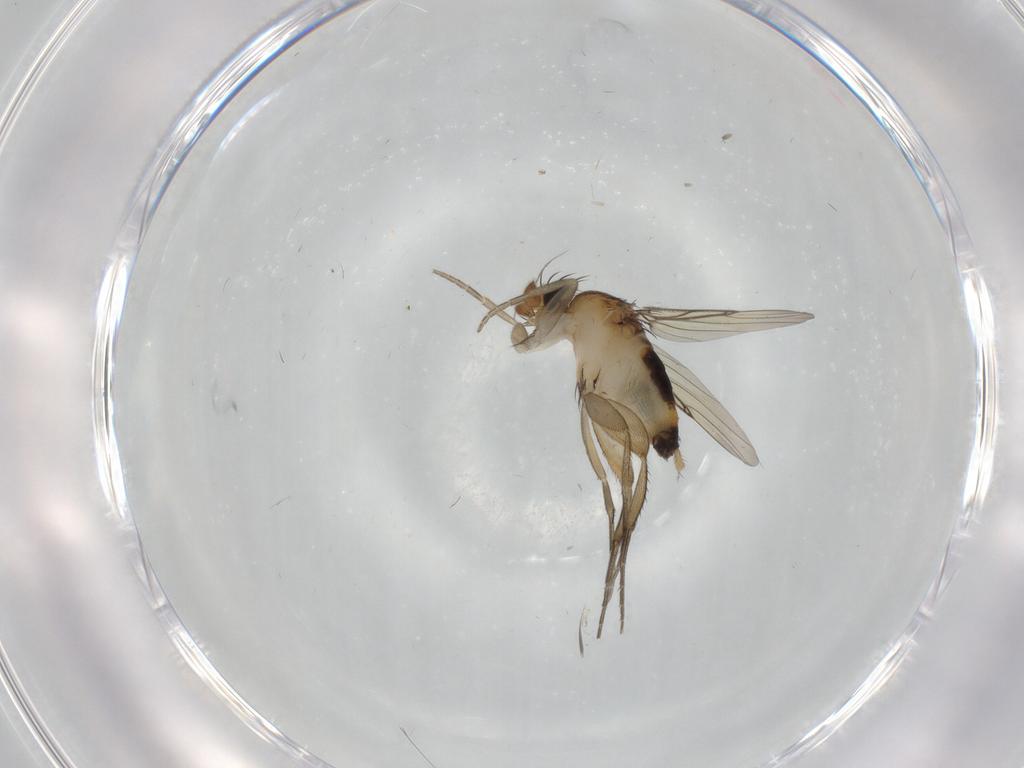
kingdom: Animalia
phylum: Arthropoda
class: Insecta
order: Diptera
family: Phoridae
